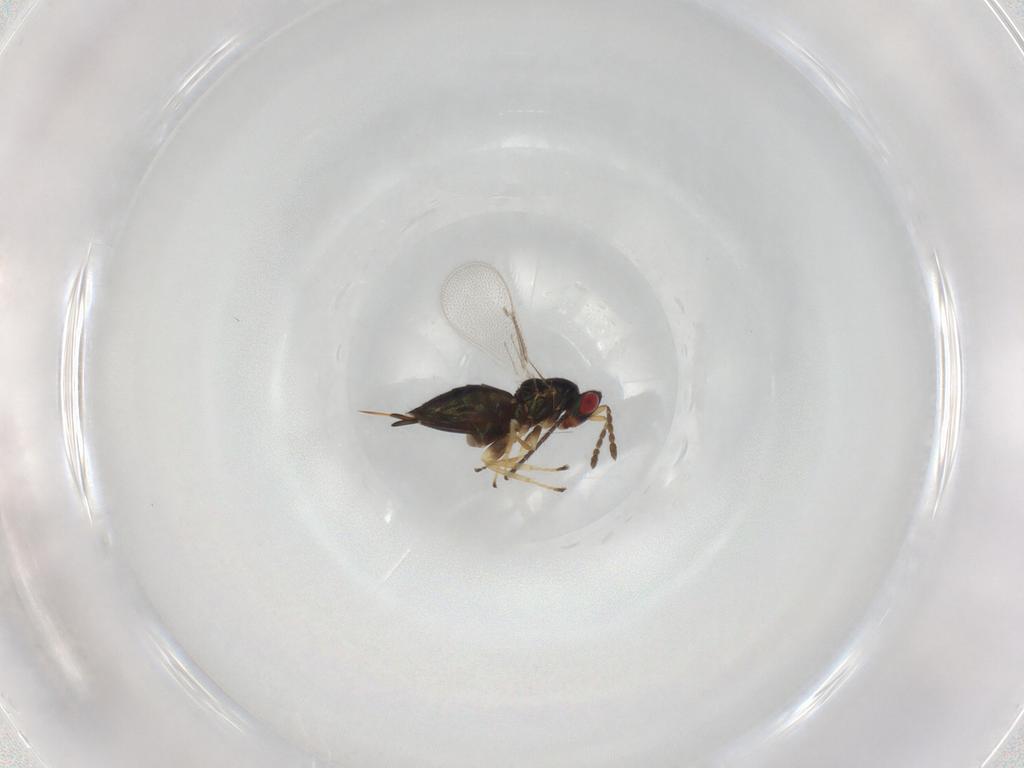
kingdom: Animalia
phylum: Arthropoda
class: Insecta
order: Hymenoptera
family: Eulophidae
